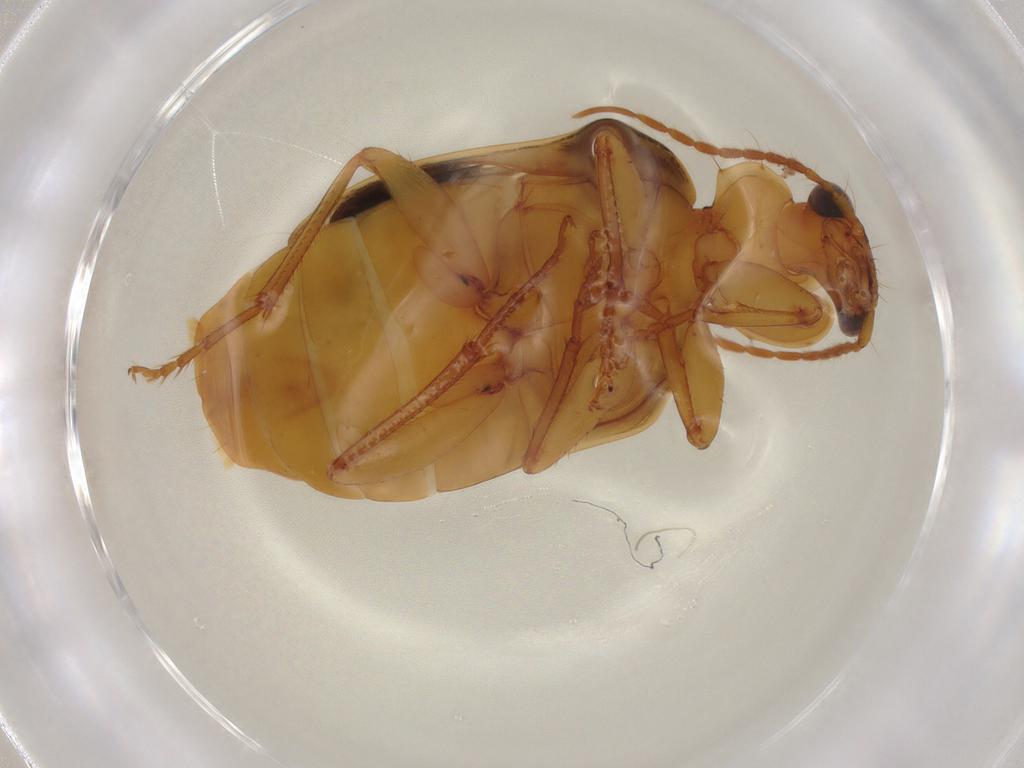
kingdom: Animalia
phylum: Arthropoda
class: Insecta
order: Coleoptera
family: Carabidae
